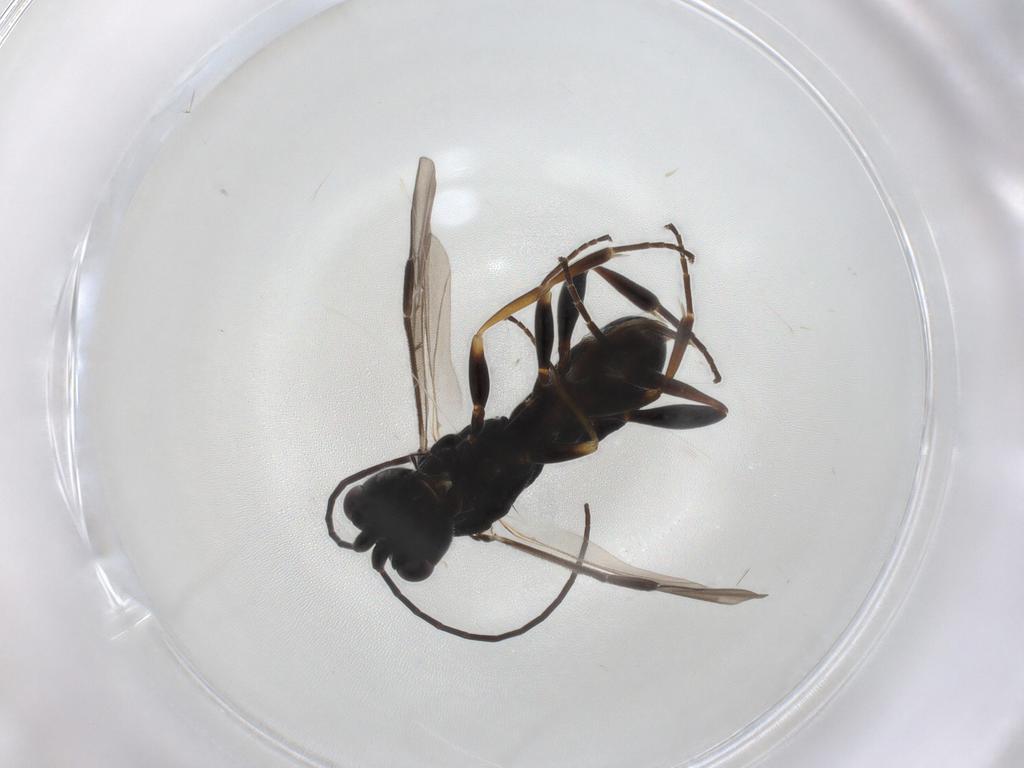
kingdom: Animalia
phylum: Arthropoda
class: Insecta
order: Hymenoptera
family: Braconidae
